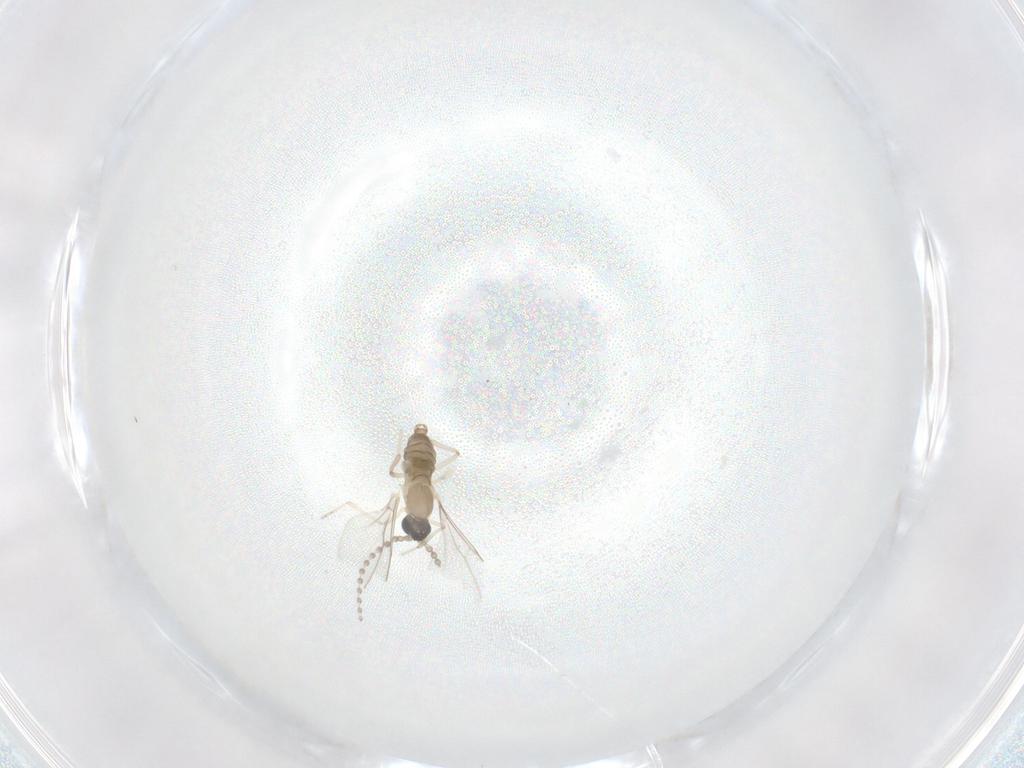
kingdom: Animalia
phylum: Arthropoda
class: Insecta
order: Diptera
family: Cecidomyiidae
